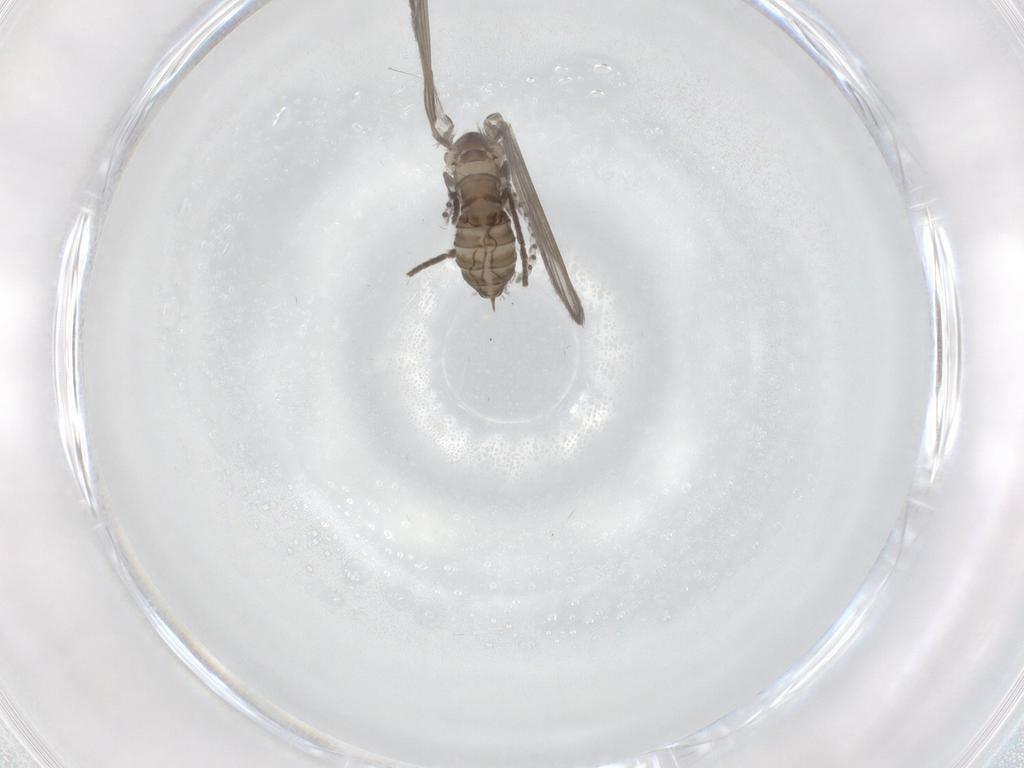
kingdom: Animalia
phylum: Arthropoda
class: Insecta
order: Diptera
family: Psychodidae
